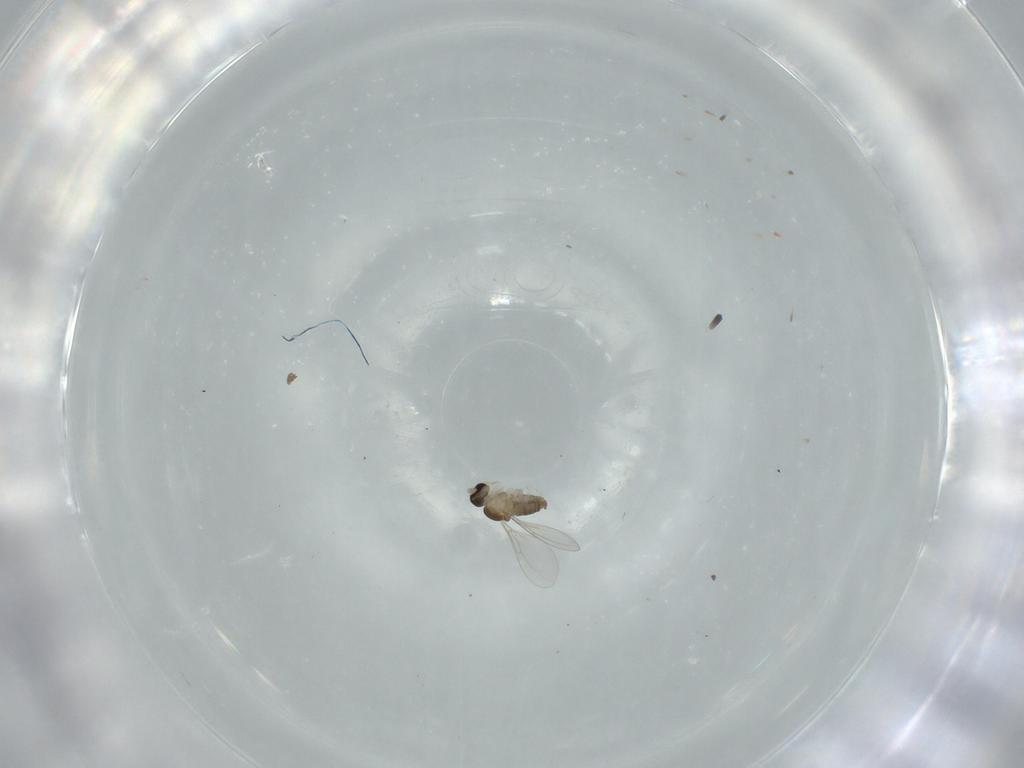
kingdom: Animalia
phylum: Arthropoda
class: Insecta
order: Diptera
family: Cecidomyiidae
